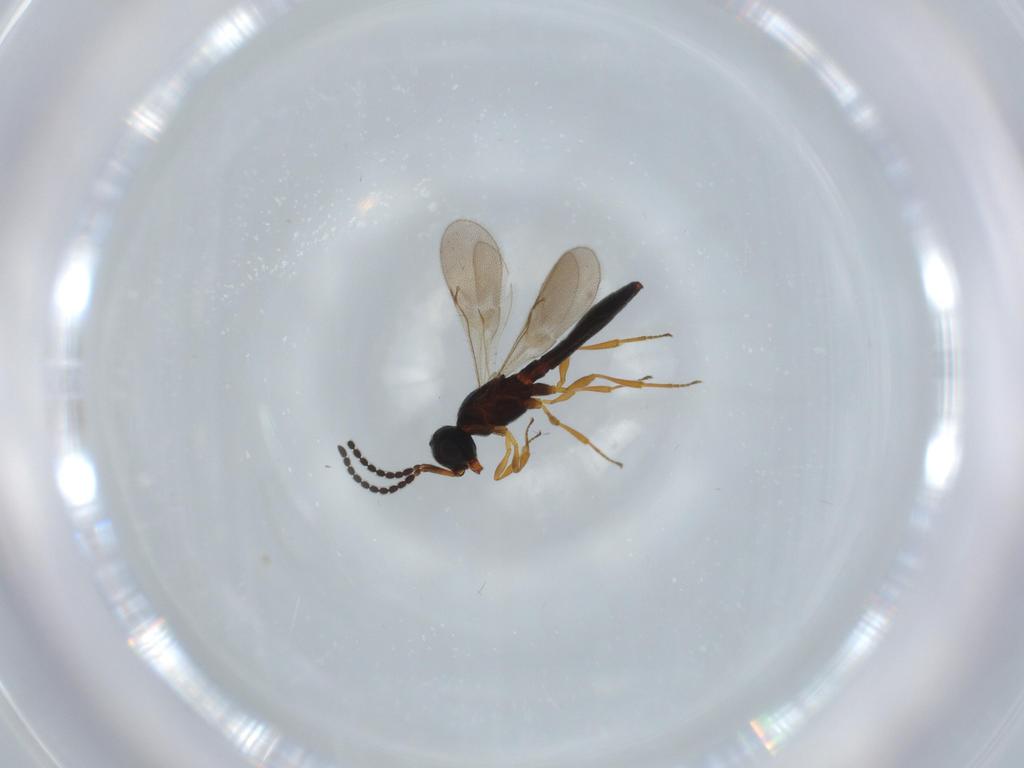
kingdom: Animalia
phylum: Arthropoda
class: Insecta
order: Hymenoptera
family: Scelionidae
